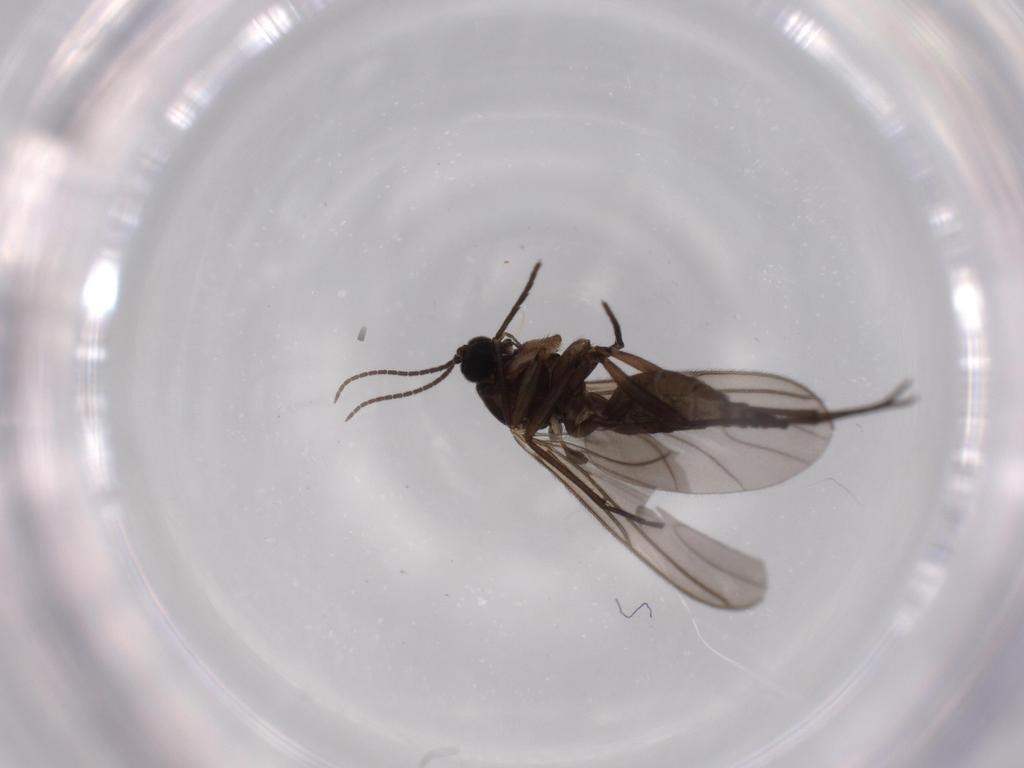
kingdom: Animalia
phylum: Arthropoda
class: Insecta
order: Diptera
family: Sciaridae
